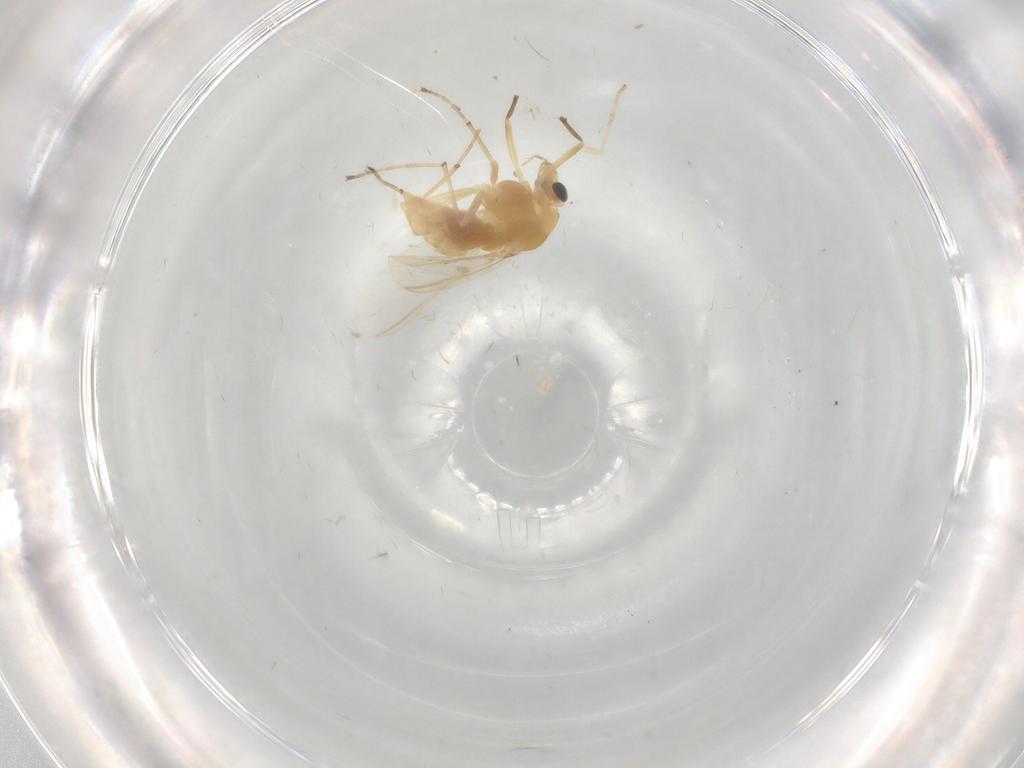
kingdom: Animalia
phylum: Arthropoda
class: Insecta
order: Diptera
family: Chironomidae
